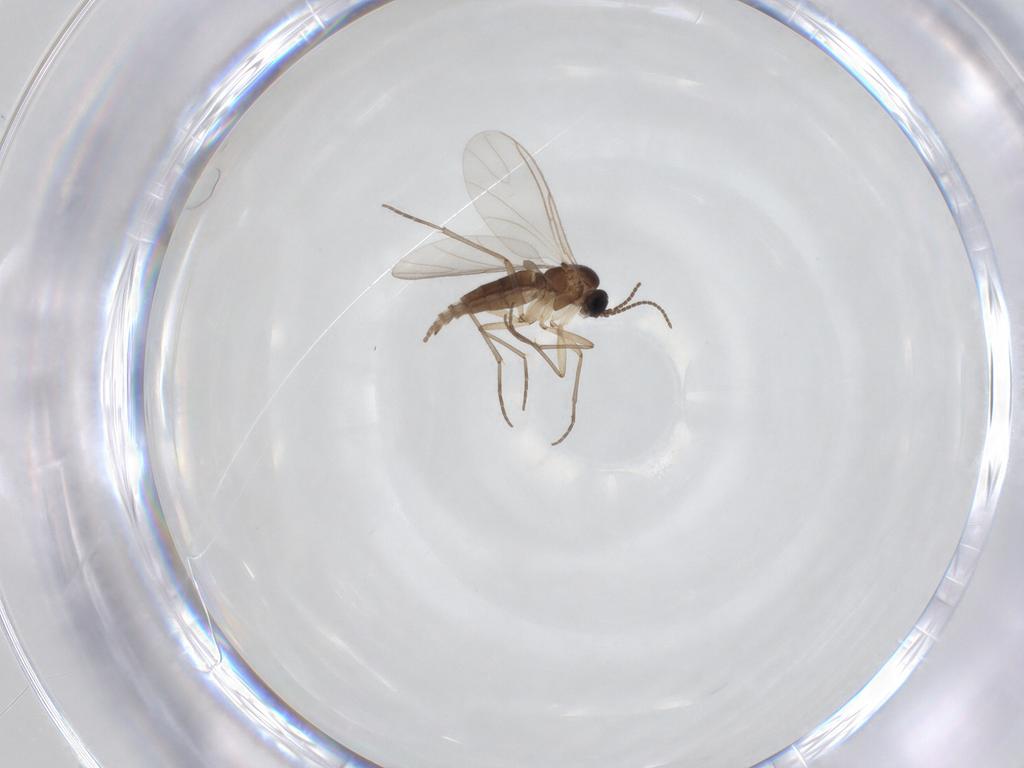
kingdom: Animalia
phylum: Arthropoda
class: Insecta
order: Diptera
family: Sciaridae
